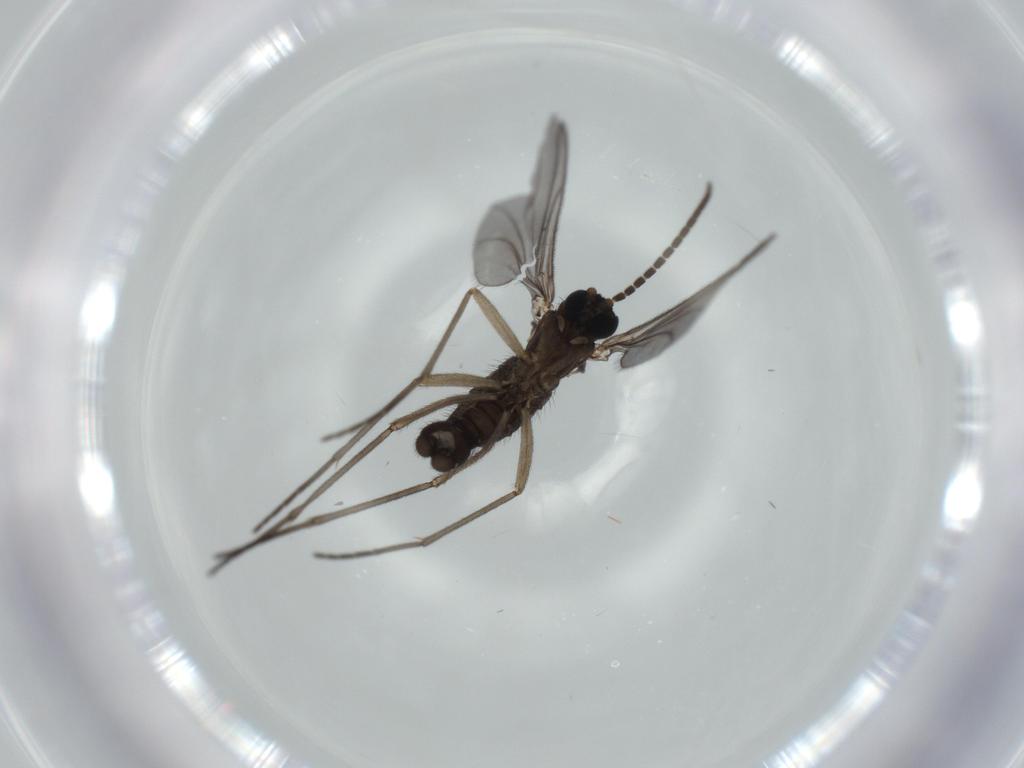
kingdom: Animalia
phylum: Arthropoda
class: Insecta
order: Diptera
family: Sciaridae
